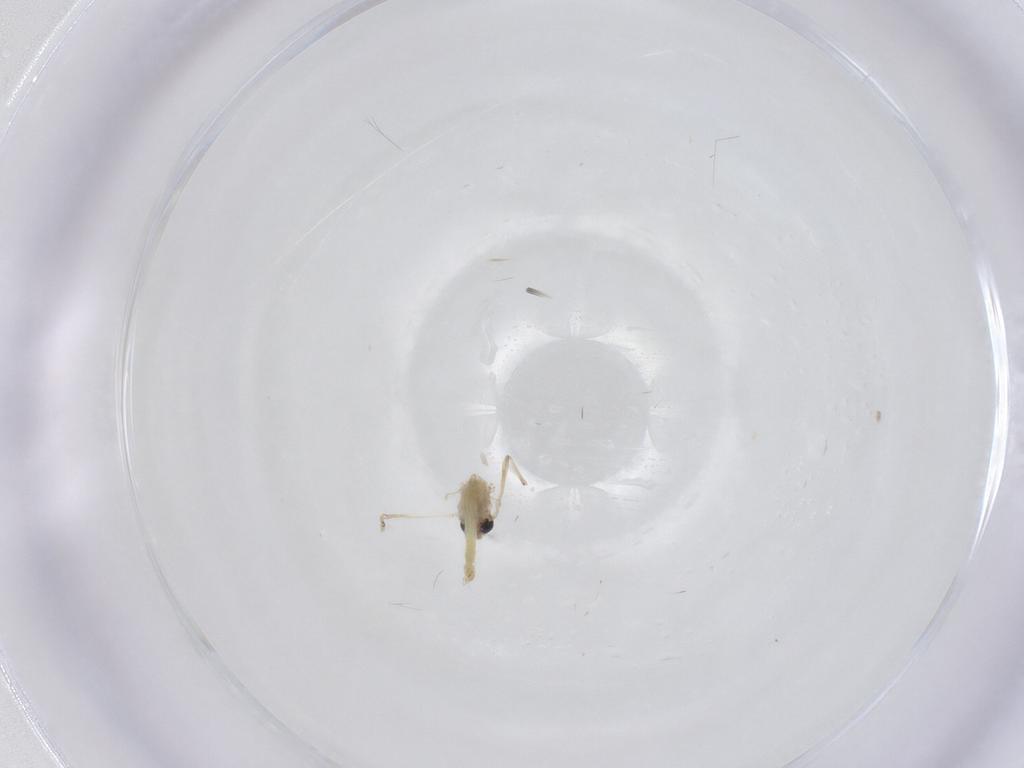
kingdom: Animalia
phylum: Arthropoda
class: Insecta
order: Diptera
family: Chironomidae
